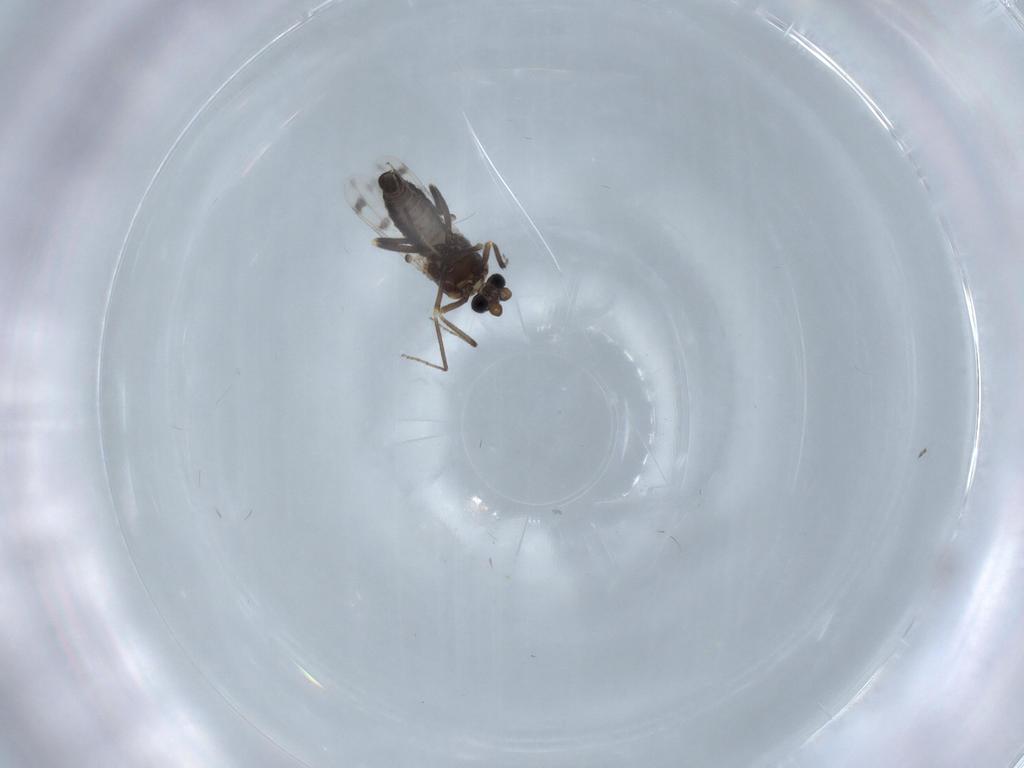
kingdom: Animalia
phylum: Arthropoda
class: Insecta
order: Diptera
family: Ceratopogonidae
